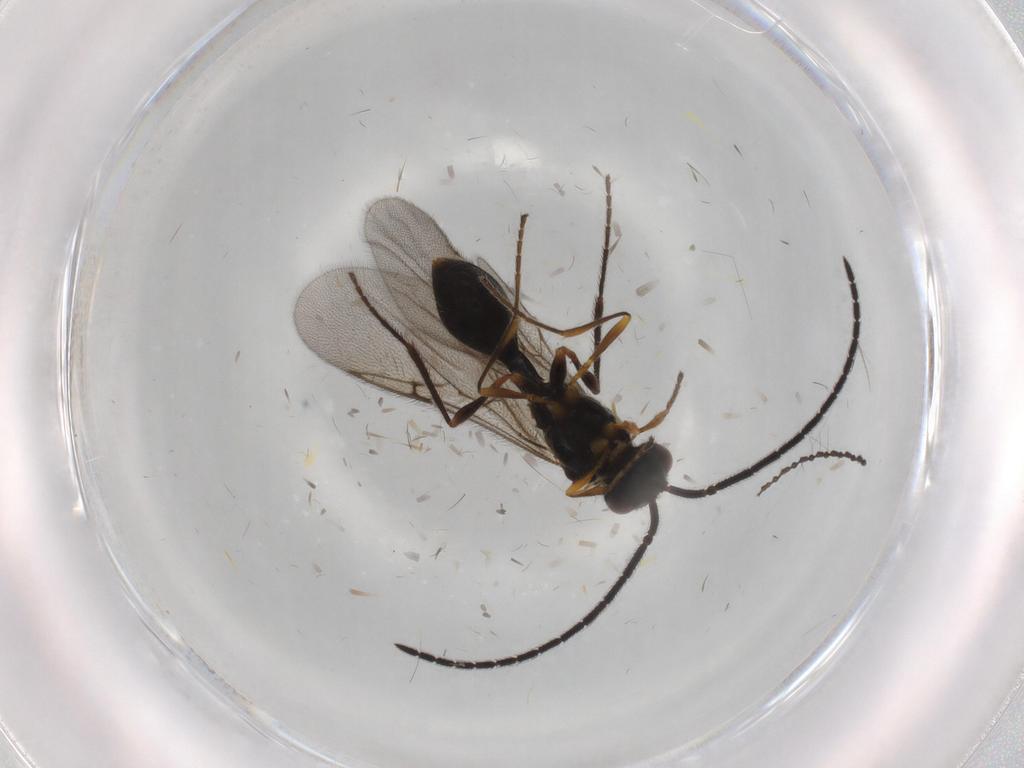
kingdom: Animalia
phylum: Arthropoda
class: Insecta
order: Hymenoptera
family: Diapriidae
